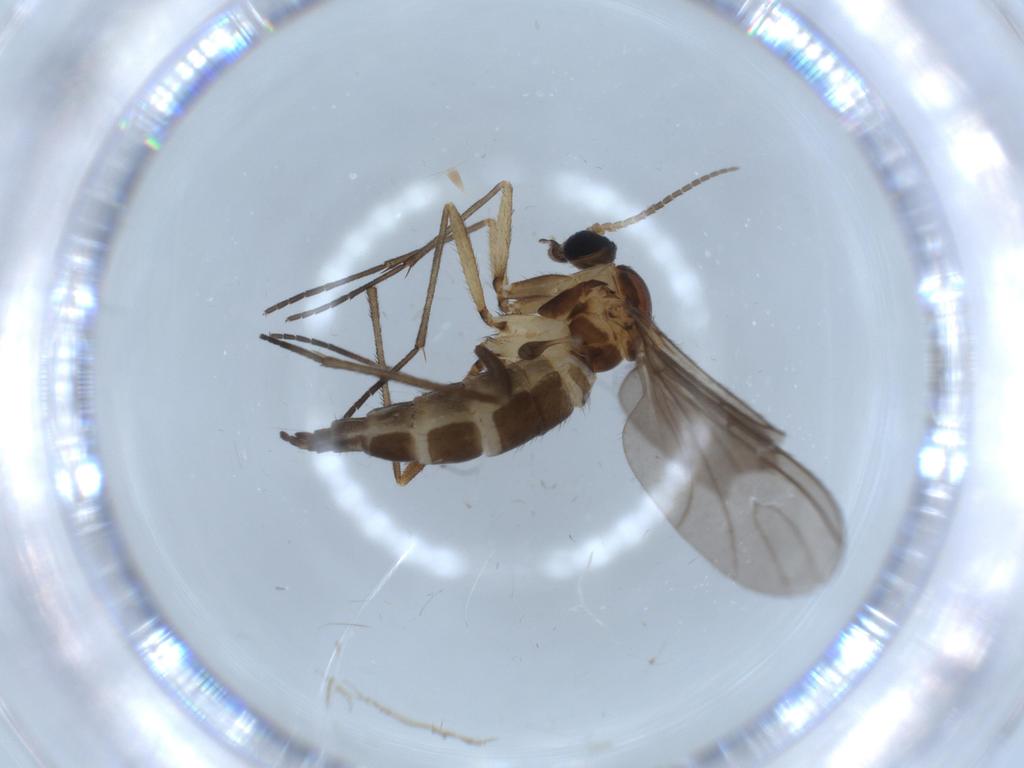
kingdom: Animalia
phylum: Arthropoda
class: Insecta
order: Diptera
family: Sciaridae
